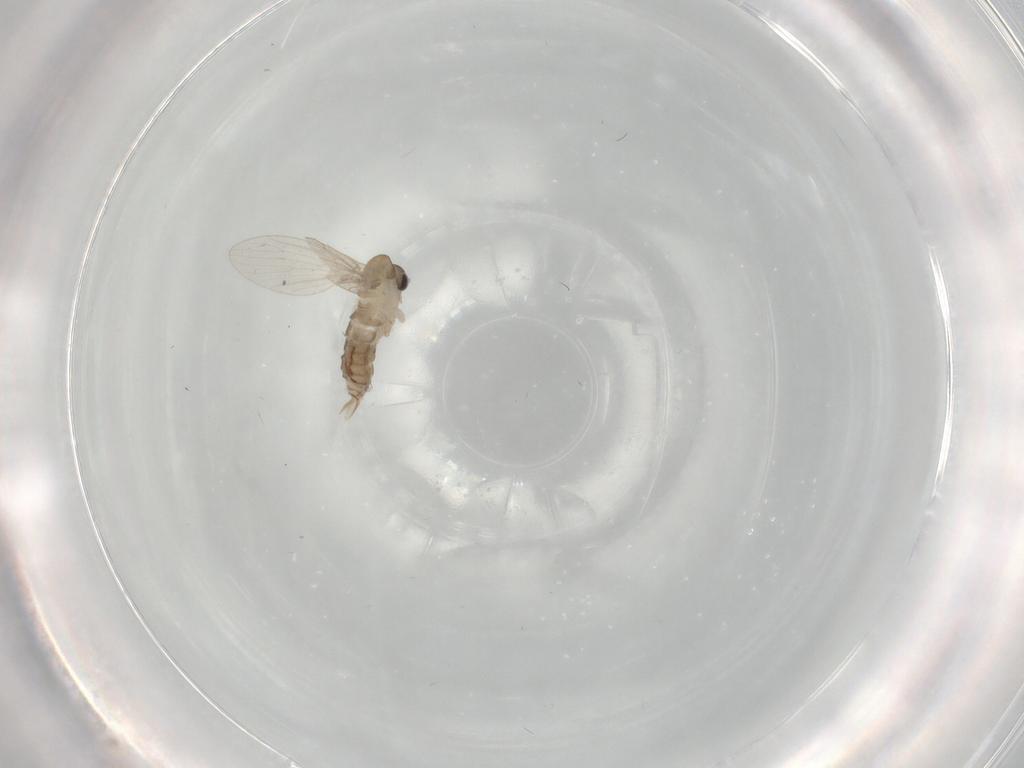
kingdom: Animalia
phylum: Arthropoda
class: Insecta
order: Diptera
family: Psychodidae
